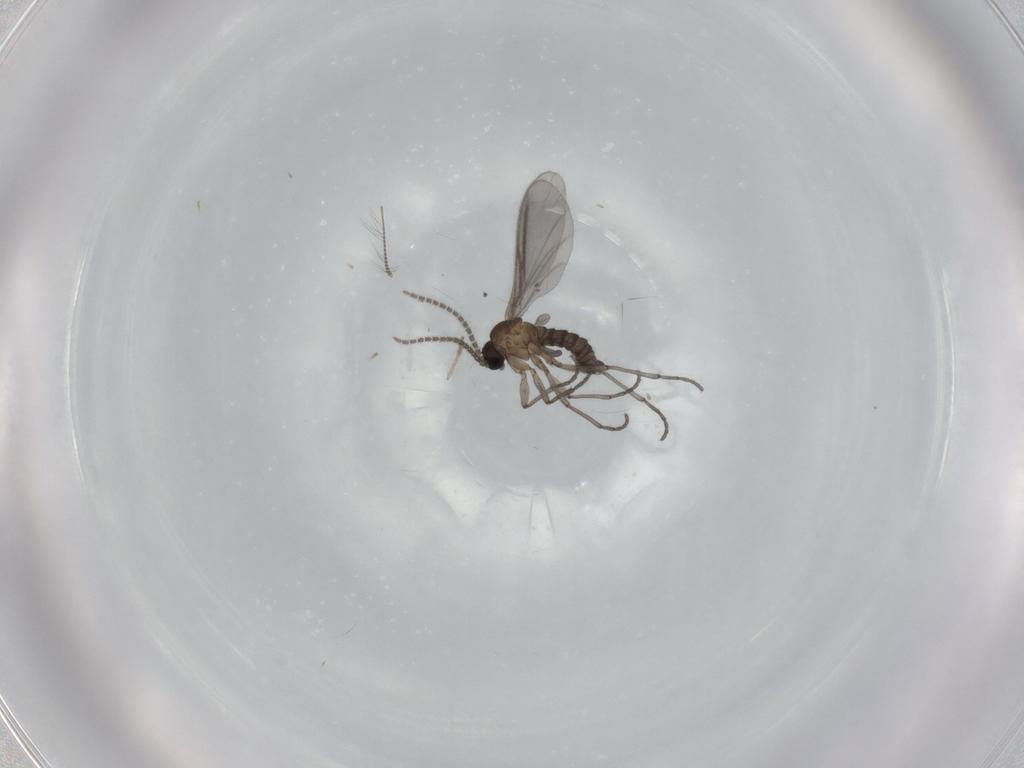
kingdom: Animalia
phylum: Arthropoda
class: Insecta
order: Diptera
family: Sciaridae
